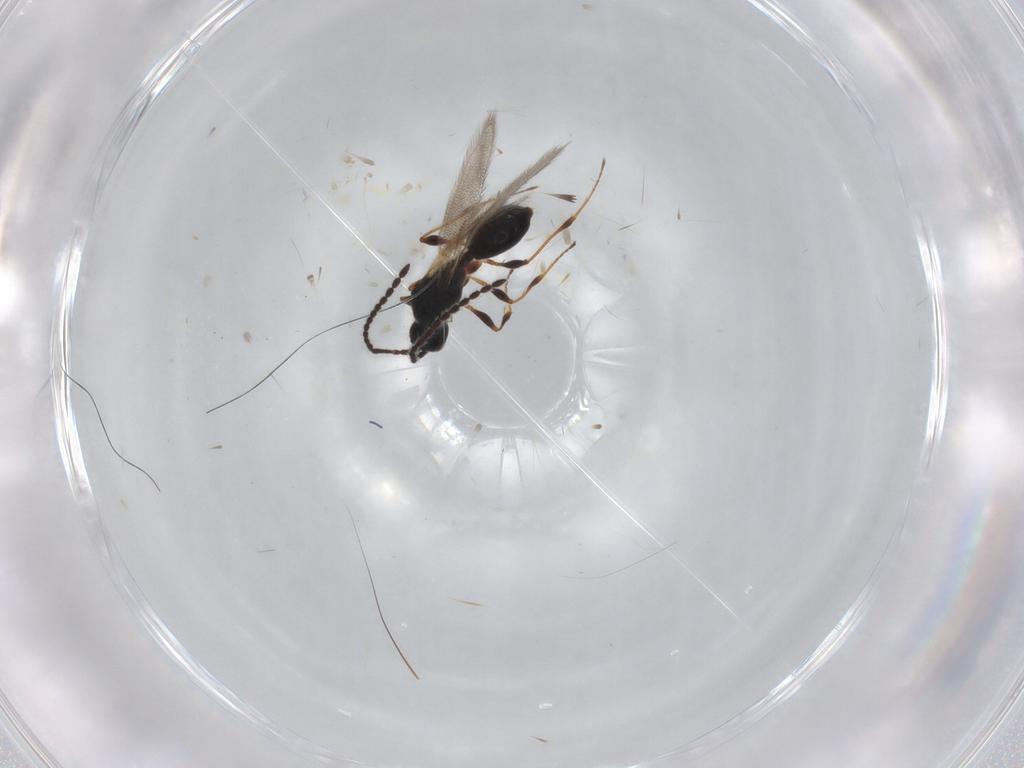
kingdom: Animalia
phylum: Arthropoda
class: Insecta
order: Hymenoptera
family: Diapriidae
